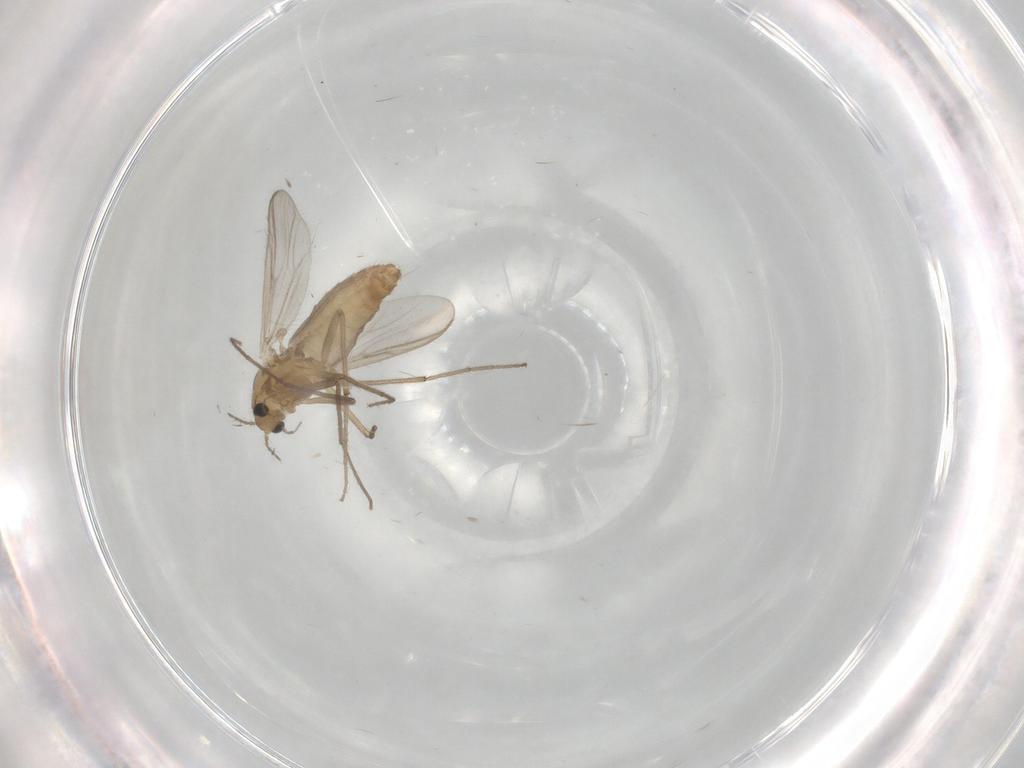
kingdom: Animalia
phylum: Arthropoda
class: Insecta
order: Diptera
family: Chironomidae
